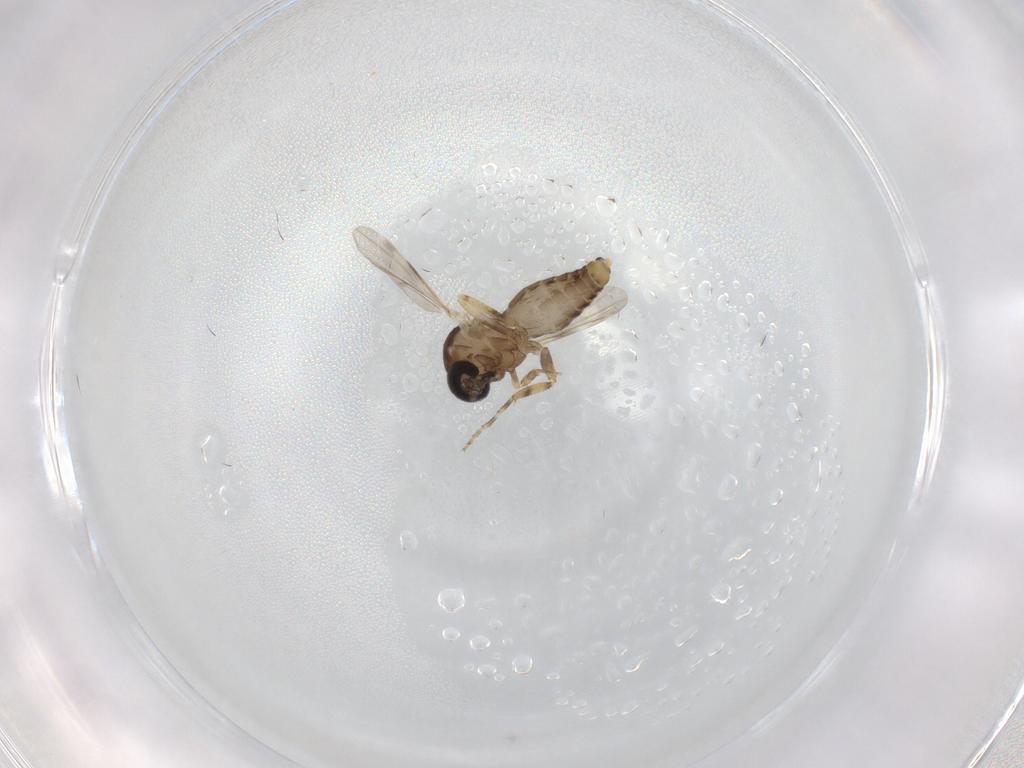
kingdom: Animalia
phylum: Arthropoda
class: Insecta
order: Diptera
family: Ceratopogonidae
